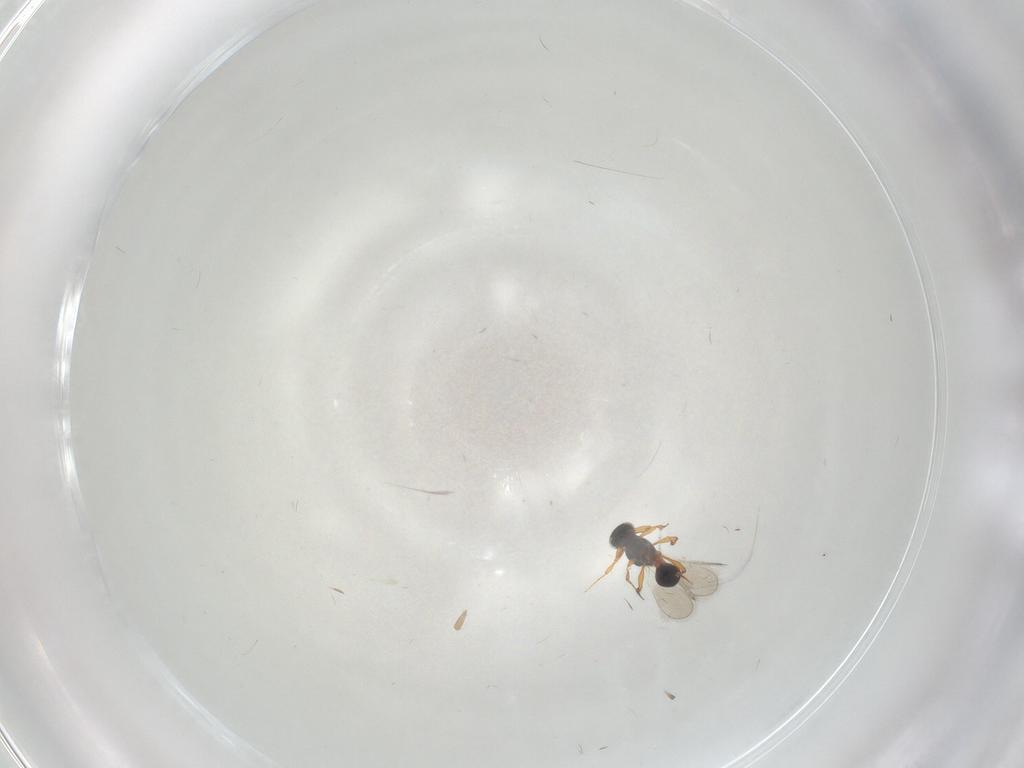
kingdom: Animalia
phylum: Arthropoda
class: Insecta
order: Hymenoptera
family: Platygastridae
